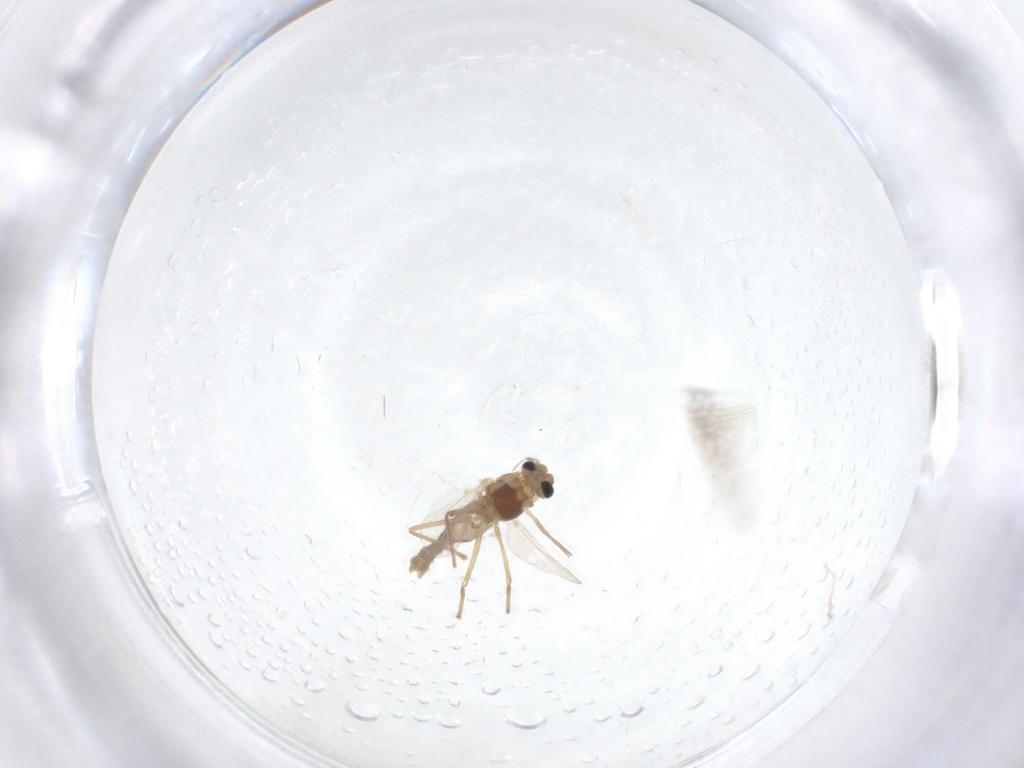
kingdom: Animalia
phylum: Arthropoda
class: Insecta
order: Diptera
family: Chironomidae
